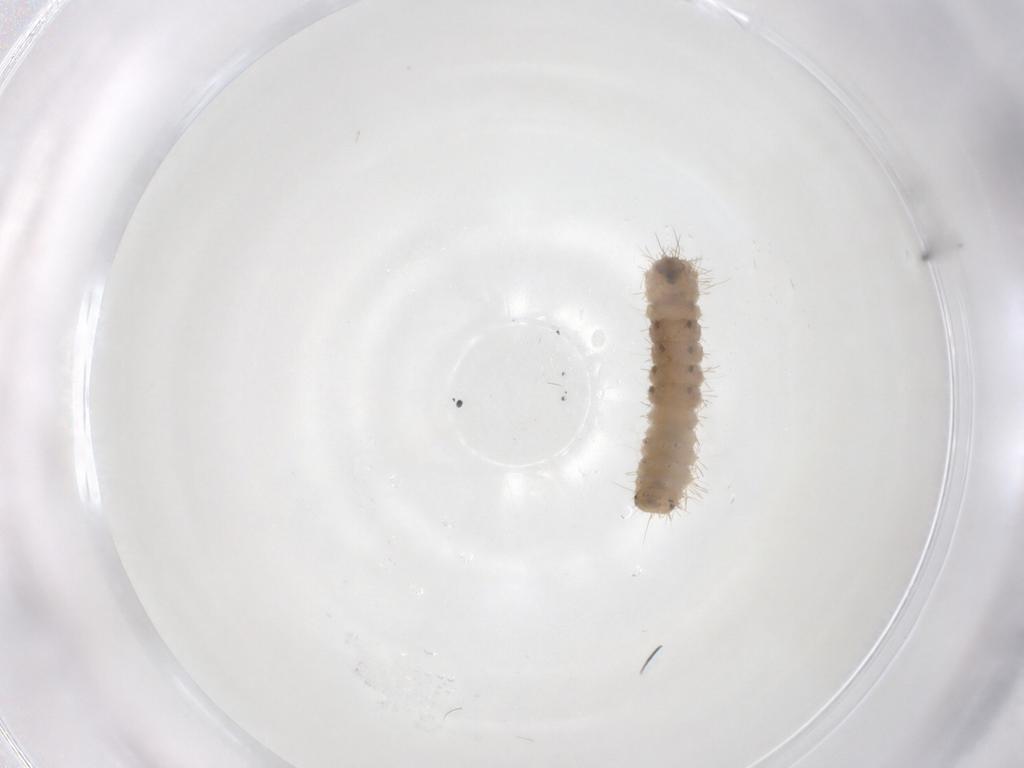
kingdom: Animalia
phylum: Arthropoda
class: Insecta
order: Lepidoptera
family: Erebidae
